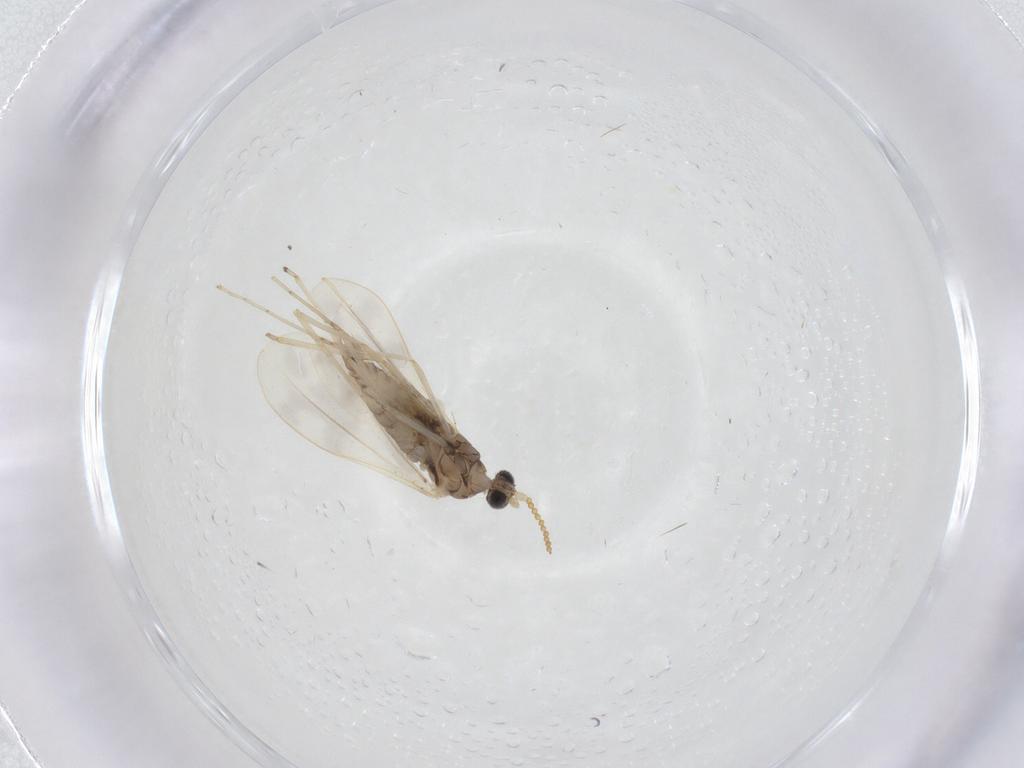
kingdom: Animalia
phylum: Arthropoda
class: Insecta
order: Diptera
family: Cecidomyiidae
